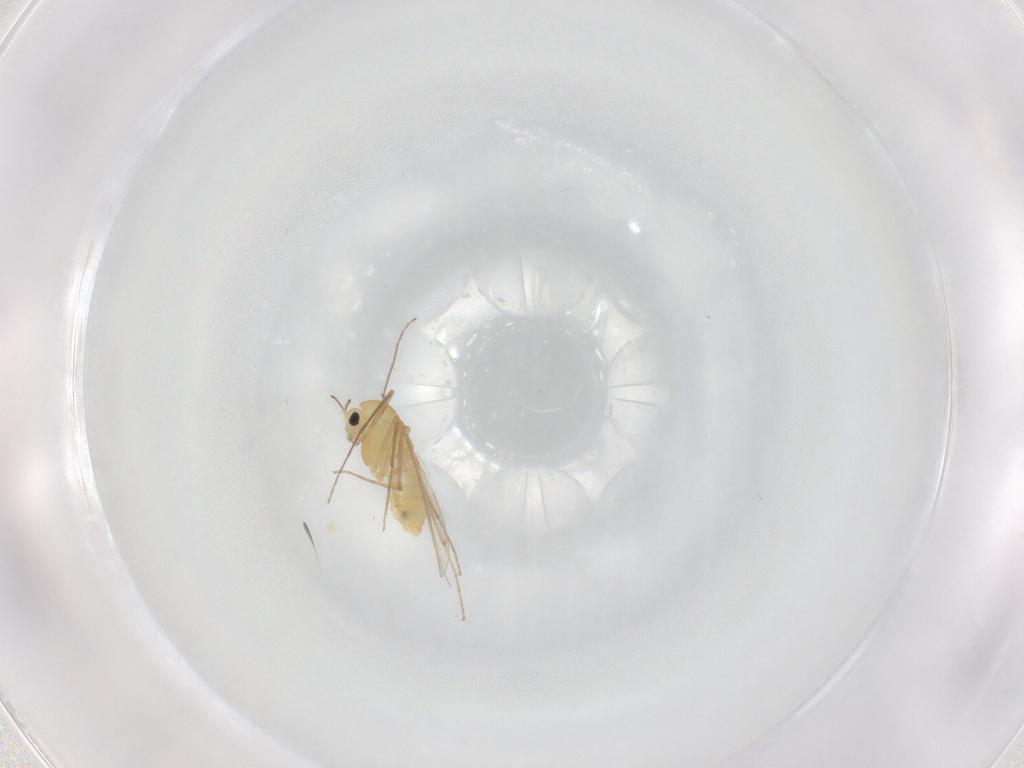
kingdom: Animalia
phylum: Arthropoda
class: Insecta
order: Diptera
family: Chironomidae
